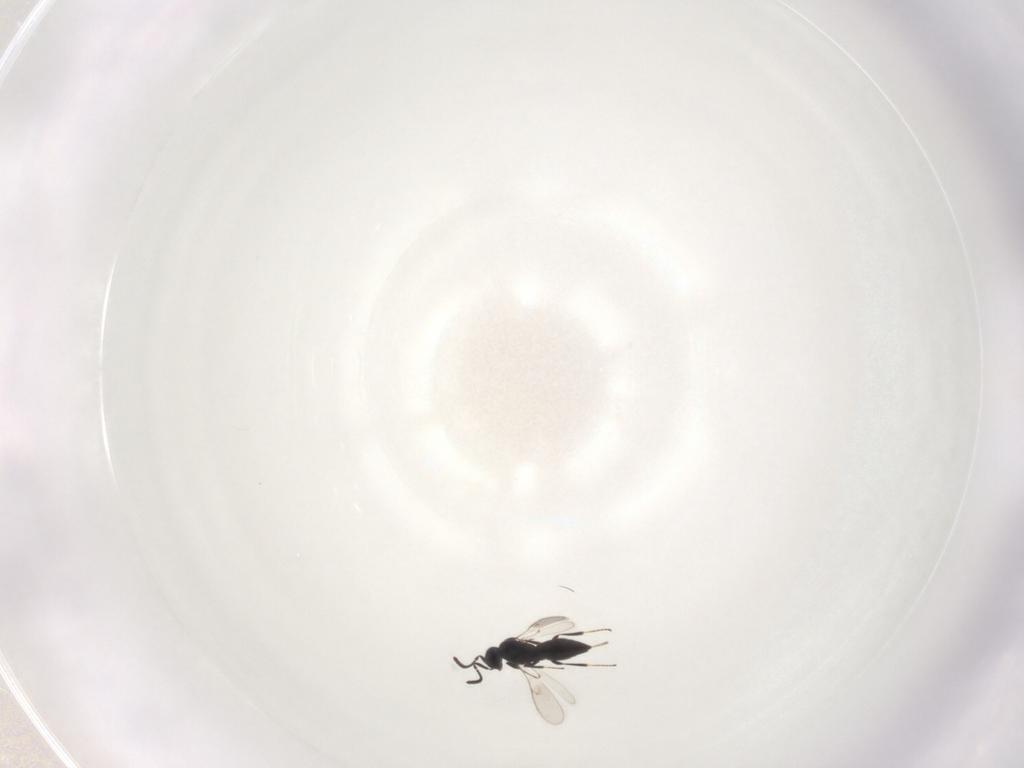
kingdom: Animalia
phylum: Arthropoda
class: Insecta
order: Hymenoptera
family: Scelionidae
